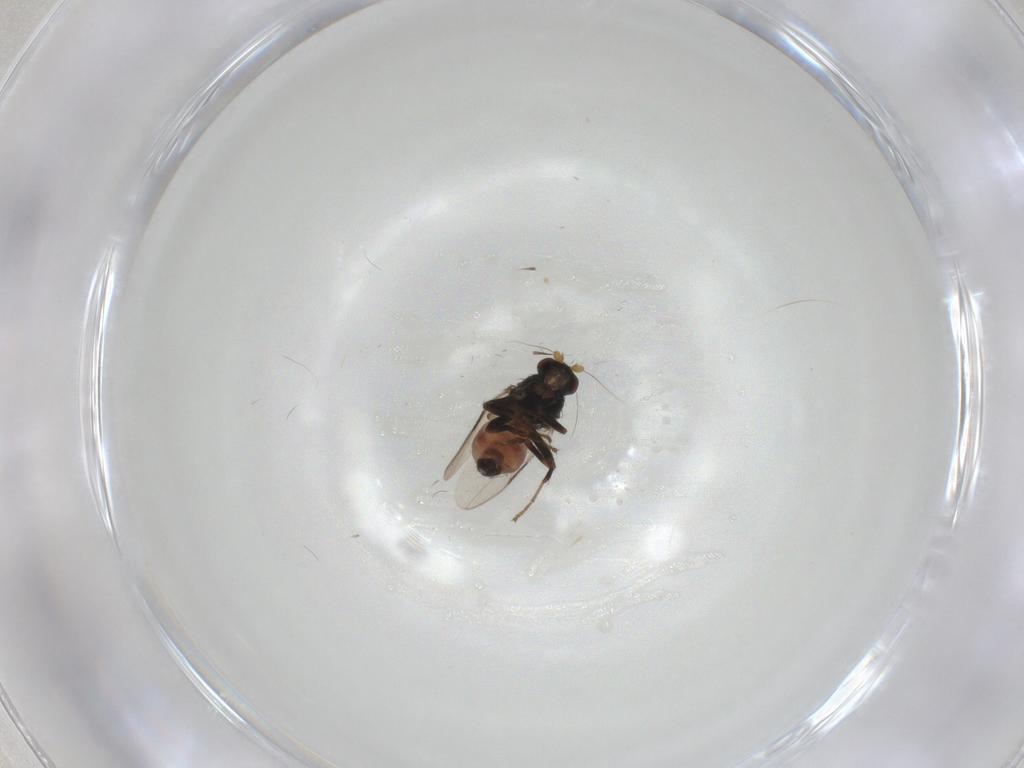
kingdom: Animalia
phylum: Arthropoda
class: Insecta
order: Diptera
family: Sphaeroceridae
